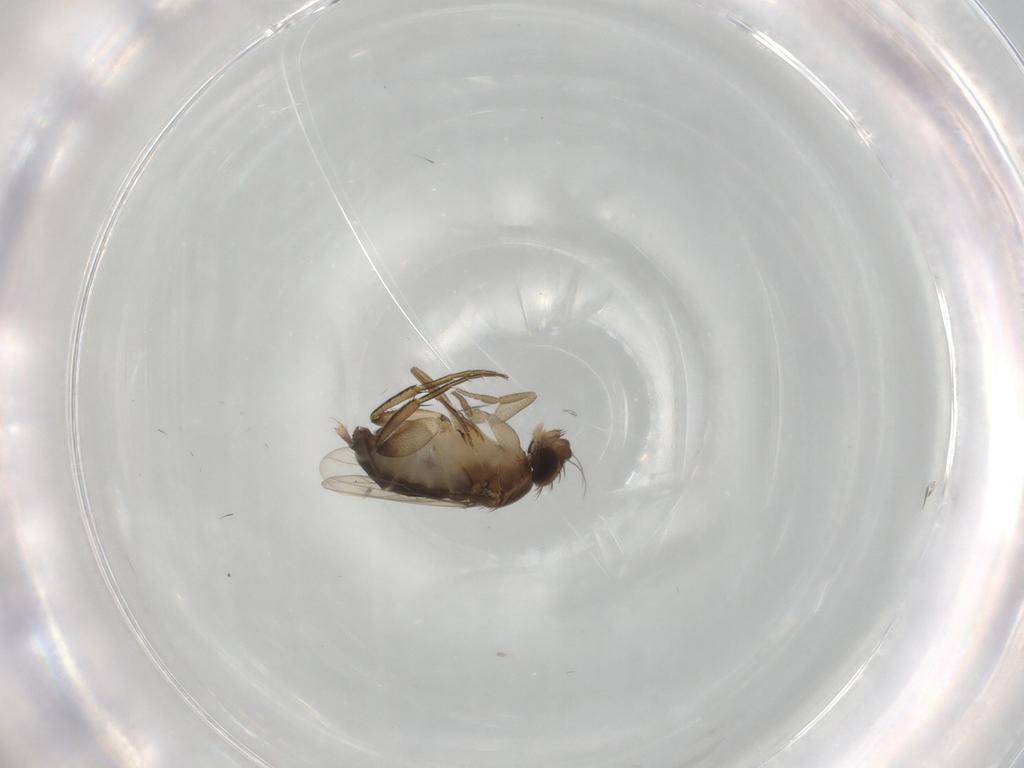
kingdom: Animalia
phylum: Arthropoda
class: Insecta
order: Diptera
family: Phoridae
